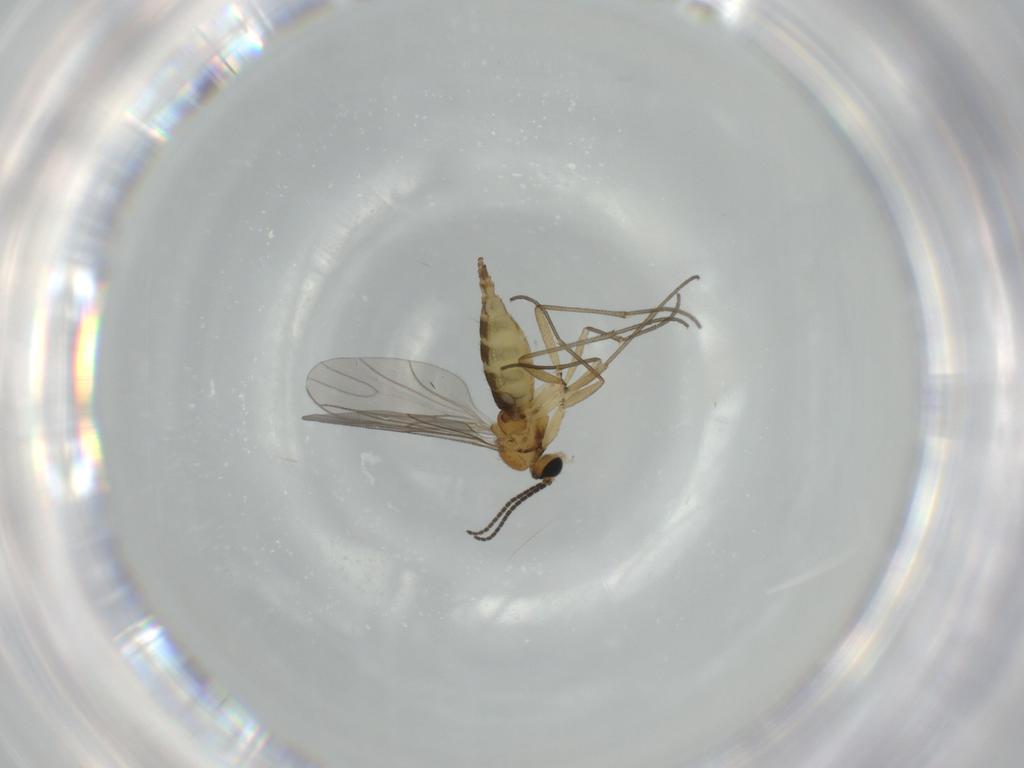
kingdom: Animalia
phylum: Arthropoda
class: Insecta
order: Diptera
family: Sciaridae
